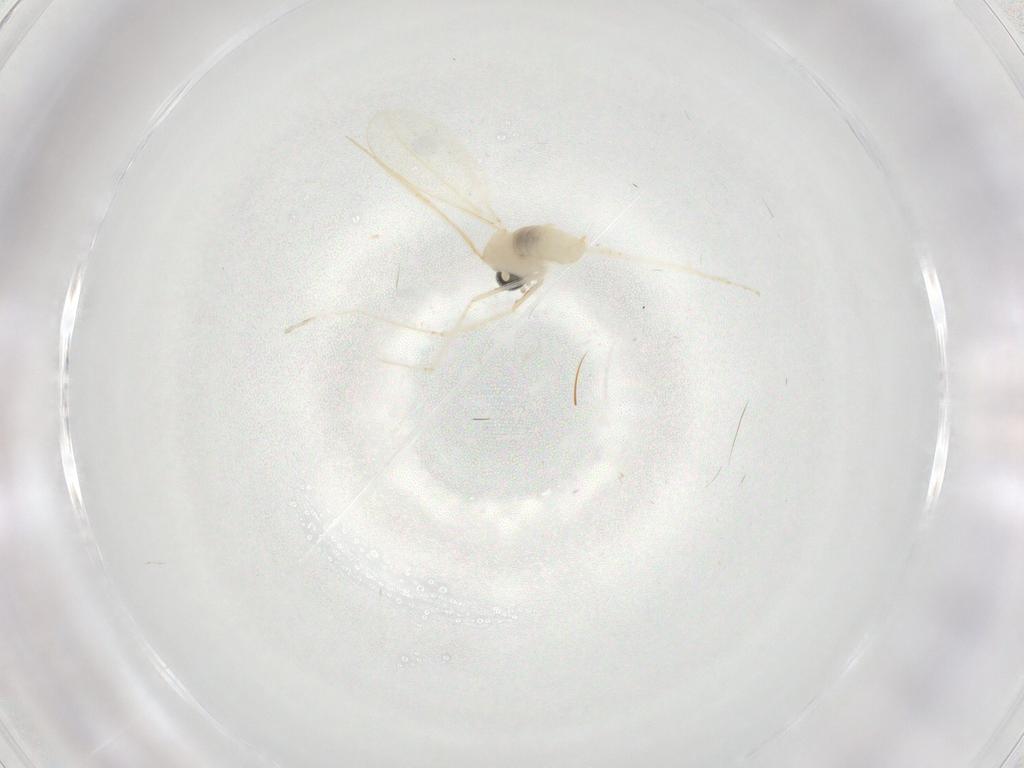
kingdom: Animalia
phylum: Arthropoda
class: Insecta
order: Diptera
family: Cecidomyiidae
